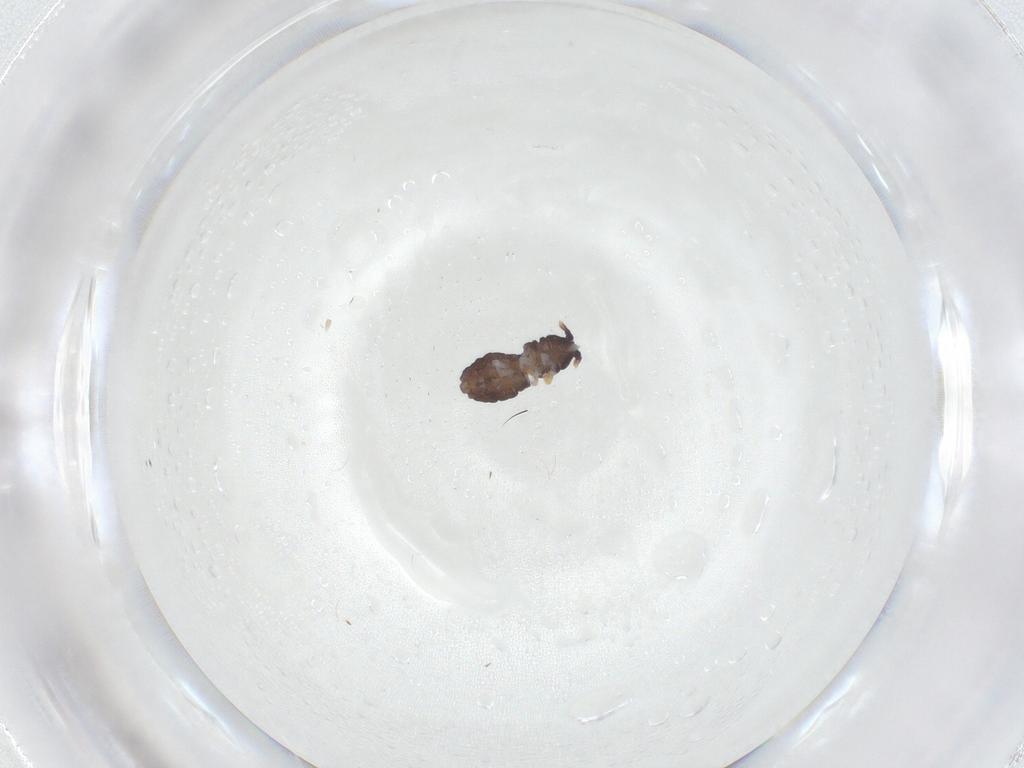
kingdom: Animalia
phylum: Arthropoda
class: Collembola
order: Poduromorpha
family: Neanuridae
